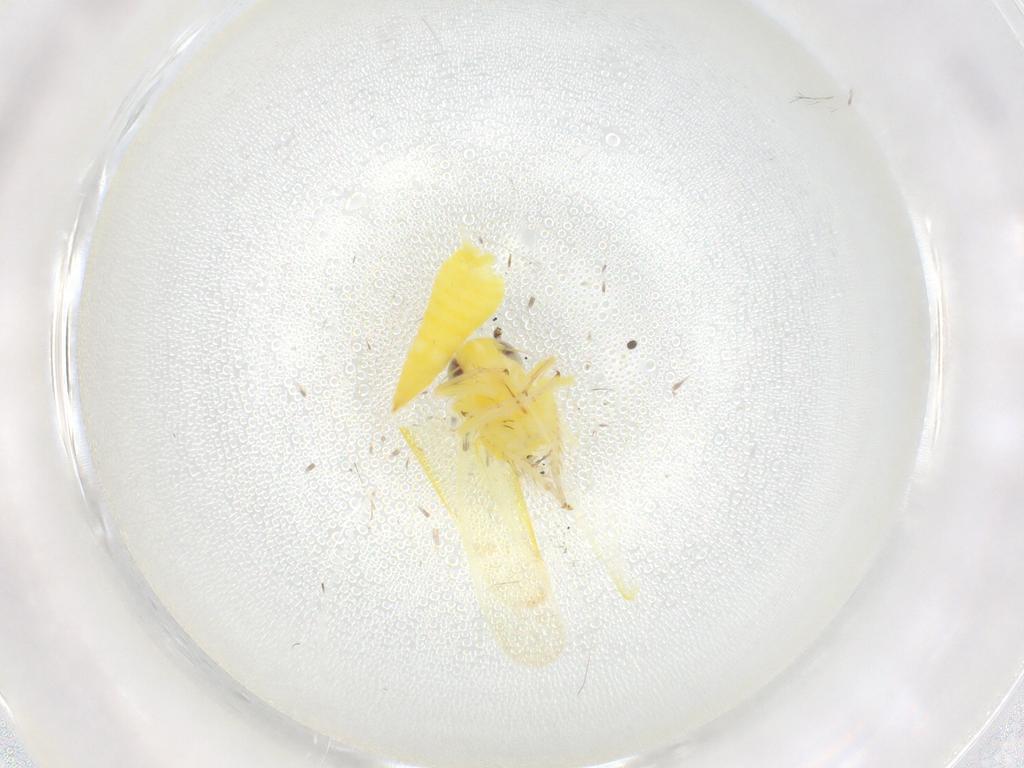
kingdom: Animalia
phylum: Arthropoda
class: Insecta
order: Hemiptera
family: Cicadellidae
